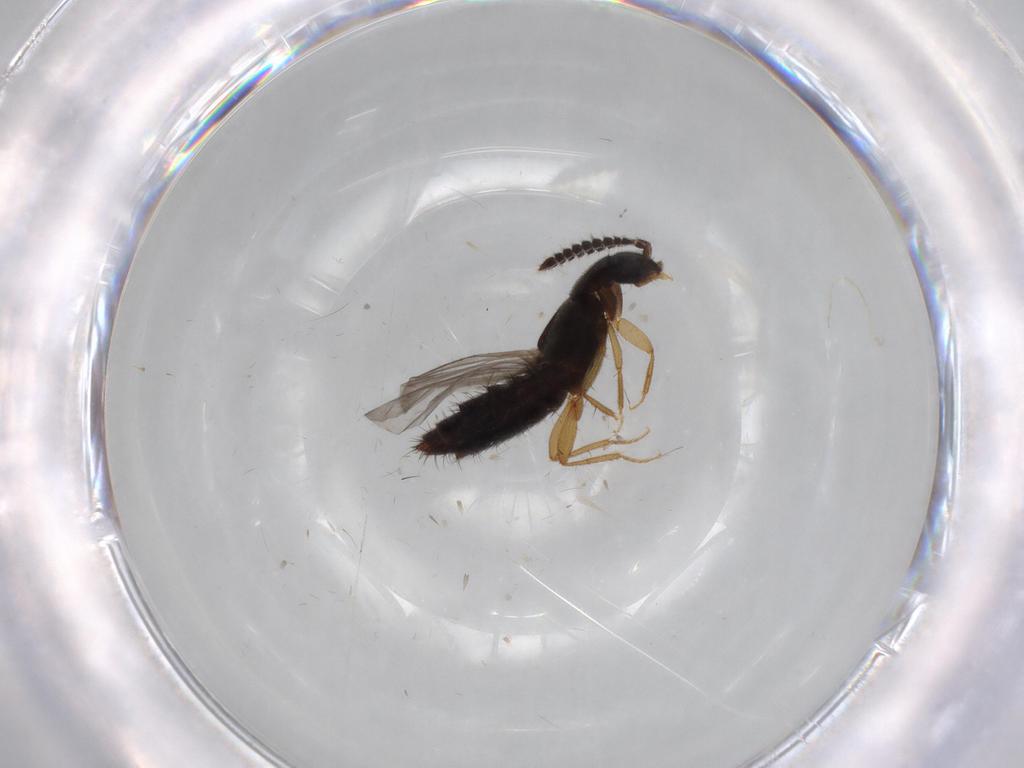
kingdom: Animalia
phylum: Arthropoda
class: Insecta
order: Coleoptera
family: Staphylinidae
